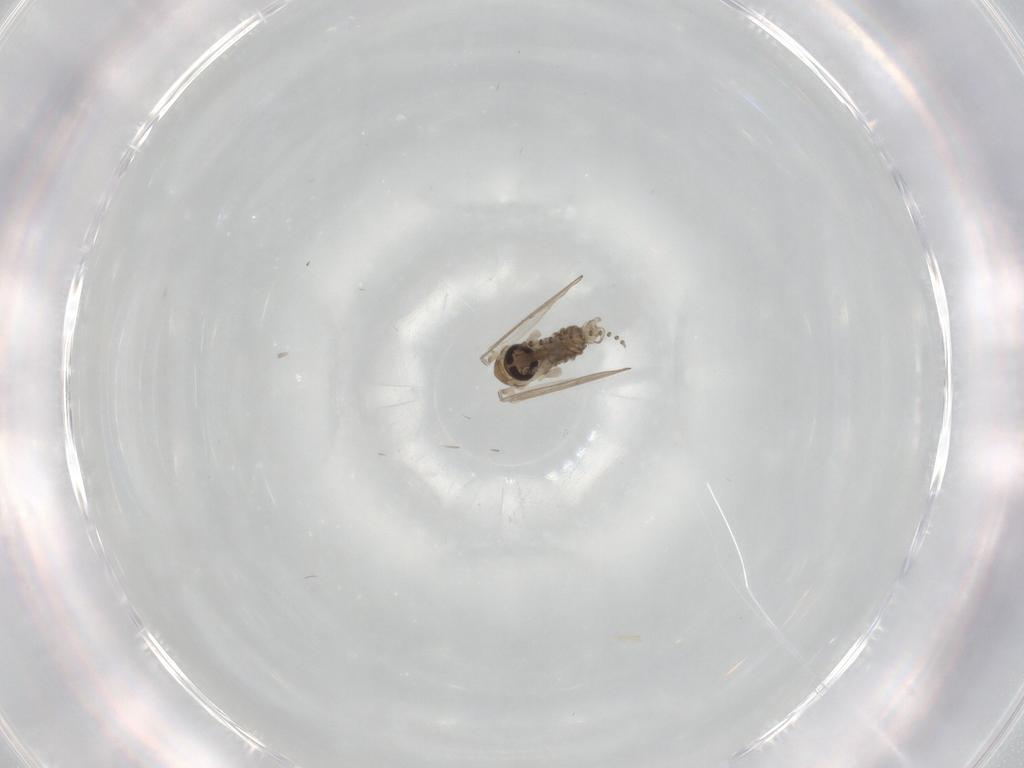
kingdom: Animalia
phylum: Arthropoda
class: Insecta
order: Diptera
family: Psychodidae
